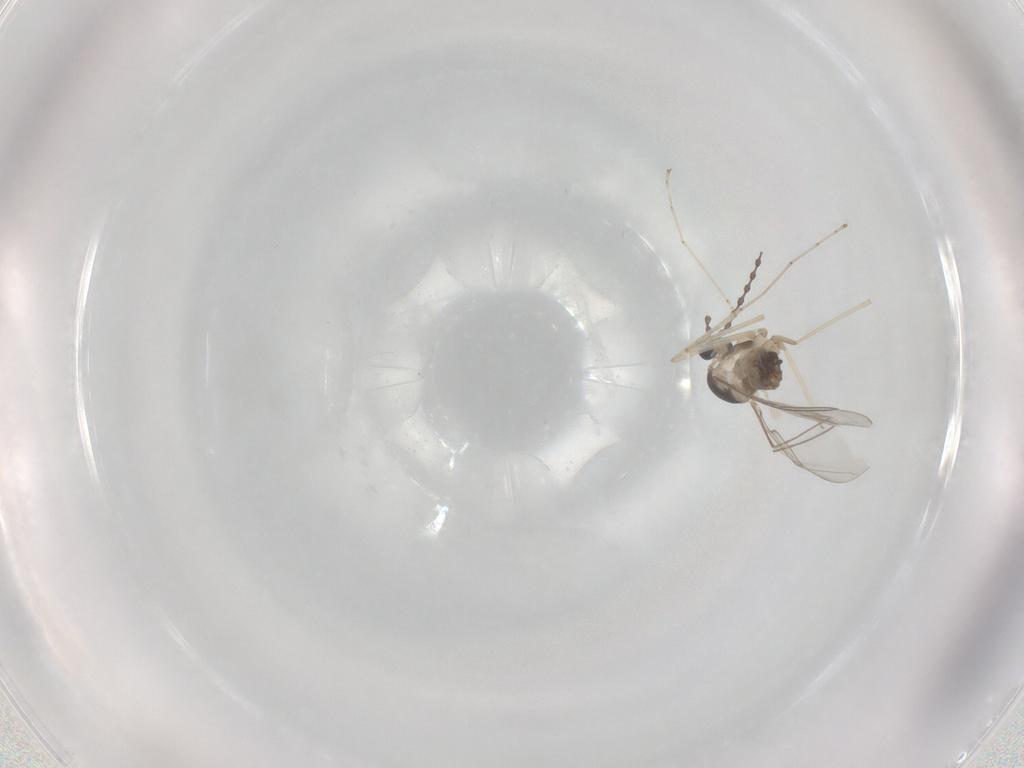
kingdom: Animalia
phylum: Arthropoda
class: Insecta
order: Diptera
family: Cecidomyiidae
